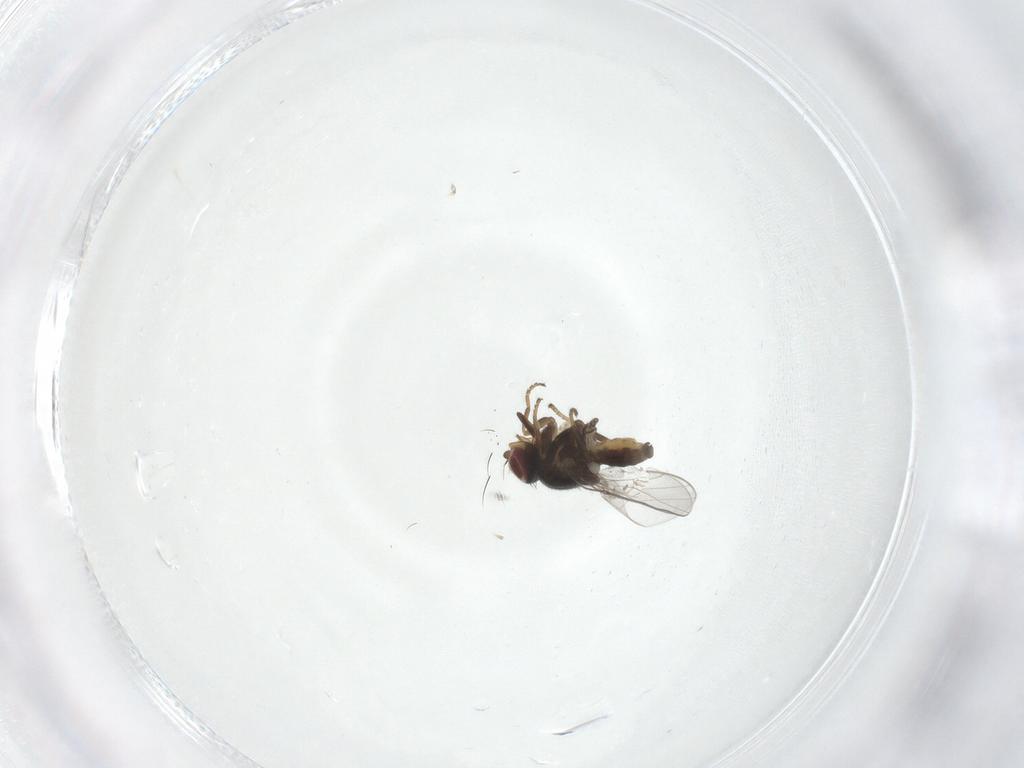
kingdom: Animalia
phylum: Arthropoda
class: Insecta
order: Diptera
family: Chloropidae
